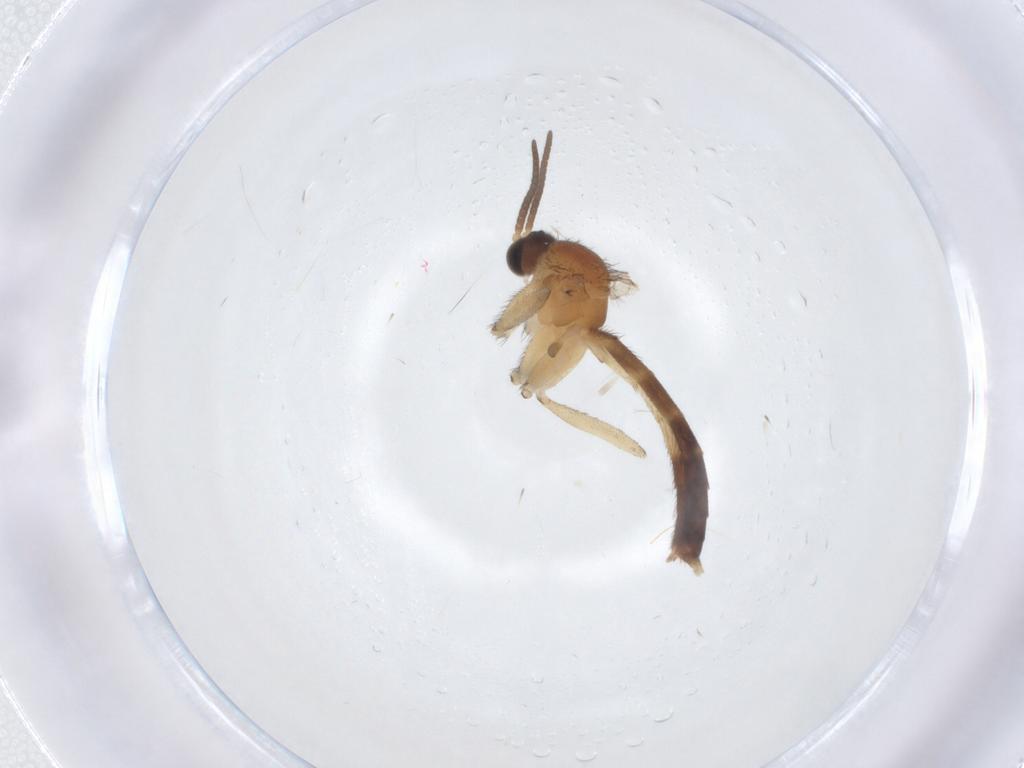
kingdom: Animalia
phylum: Arthropoda
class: Insecta
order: Diptera
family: Keroplatidae
